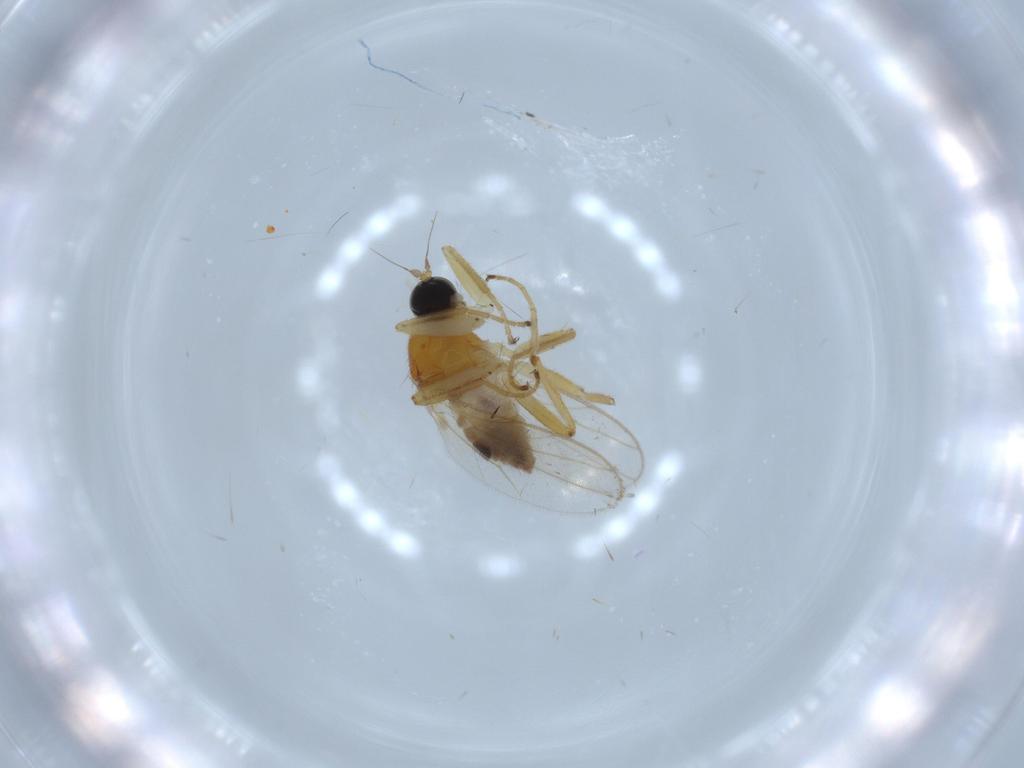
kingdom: Animalia
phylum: Arthropoda
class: Insecta
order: Diptera
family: Hybotidae
